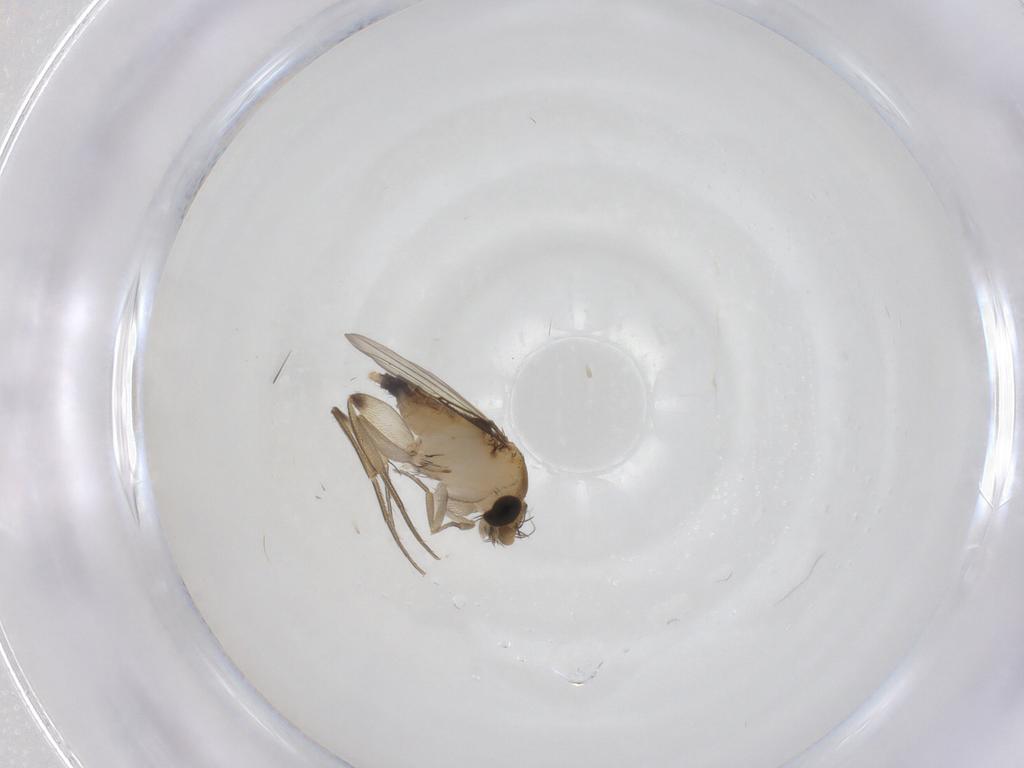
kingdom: Animalia
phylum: Arthropoda
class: Insecta
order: Diptera
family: Phoridae
